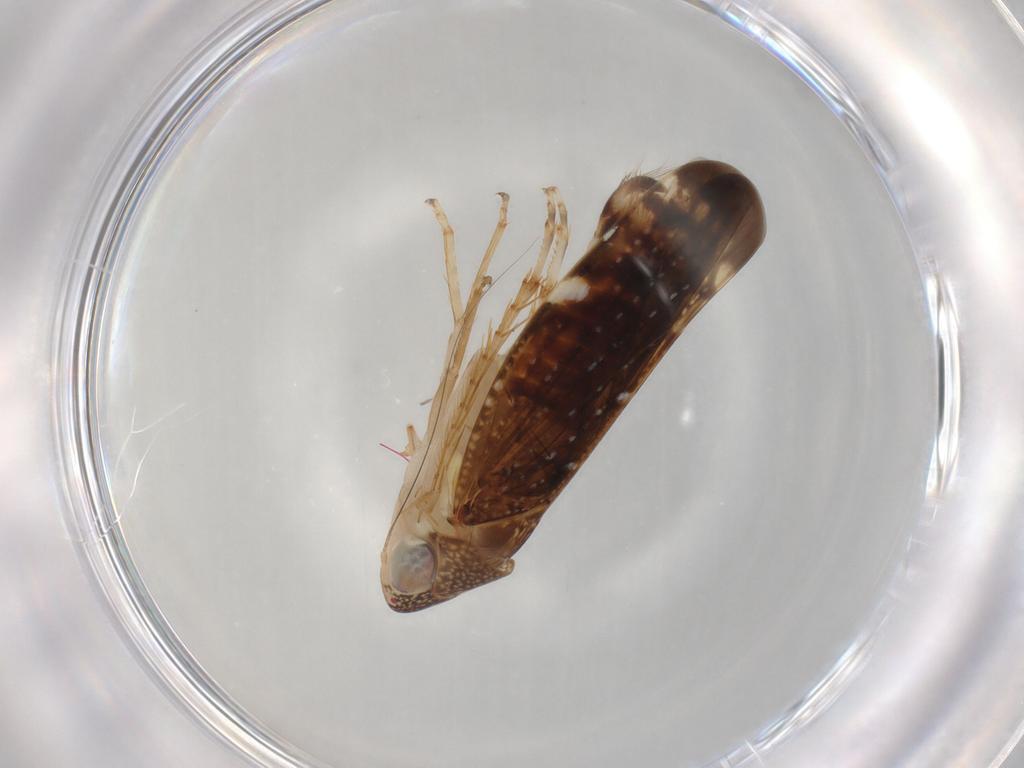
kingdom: Animalia
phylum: Arthropoda
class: Insecta
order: Hemiptera
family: Cicadellidae
